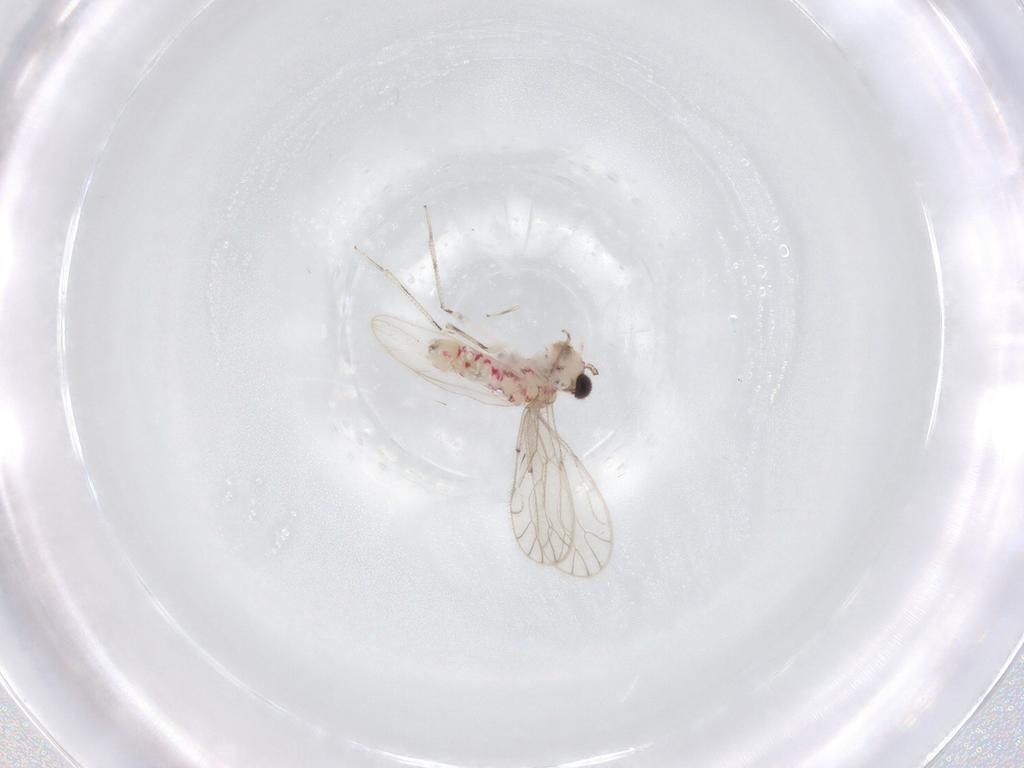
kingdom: Animalia
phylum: Arthropoda
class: Insecta
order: Psocodea
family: Caeciliusidae
